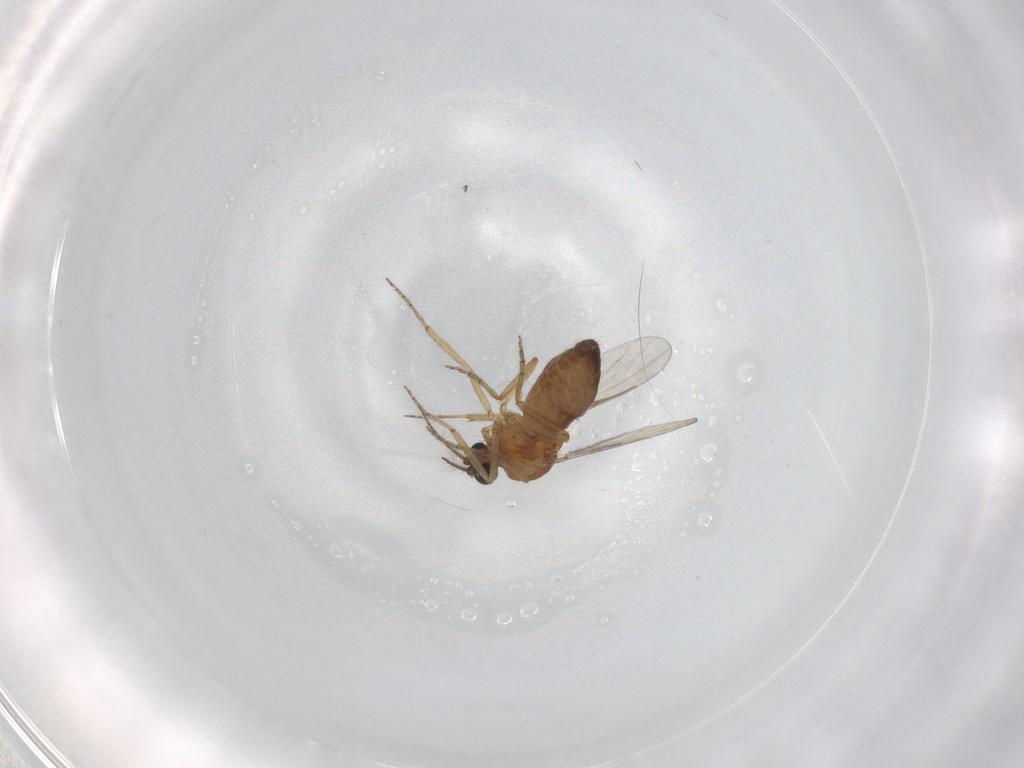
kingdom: Animalia
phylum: Arthropoda
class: Insecta
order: Diptera
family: Ceratopogonidae
